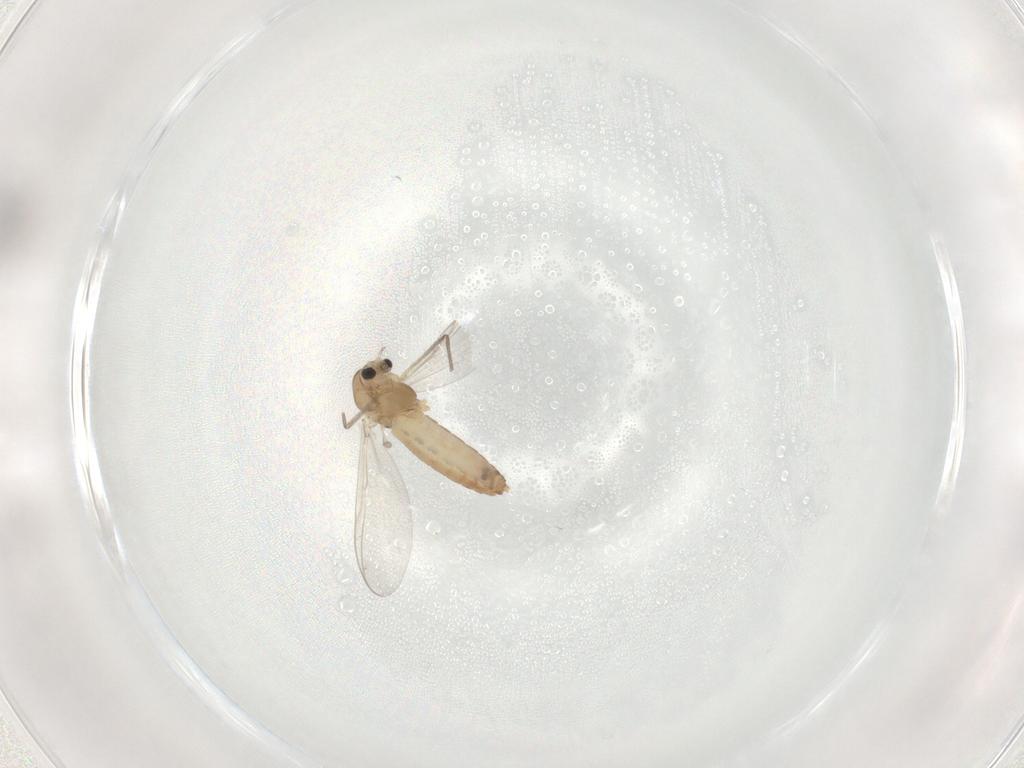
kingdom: Animalia
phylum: Arthropoda
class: Insecta
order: Diptera
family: Chironomidae
